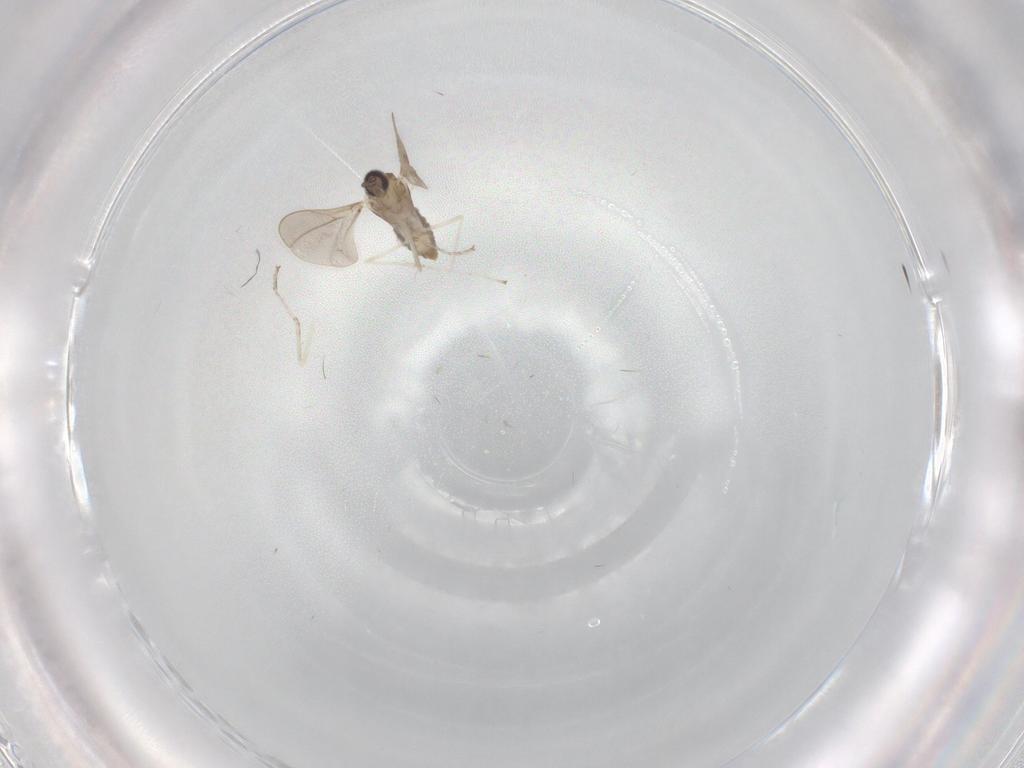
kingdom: Animalia
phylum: Arthropoda
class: Insecta
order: Diptera
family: Cecidomyiidae
